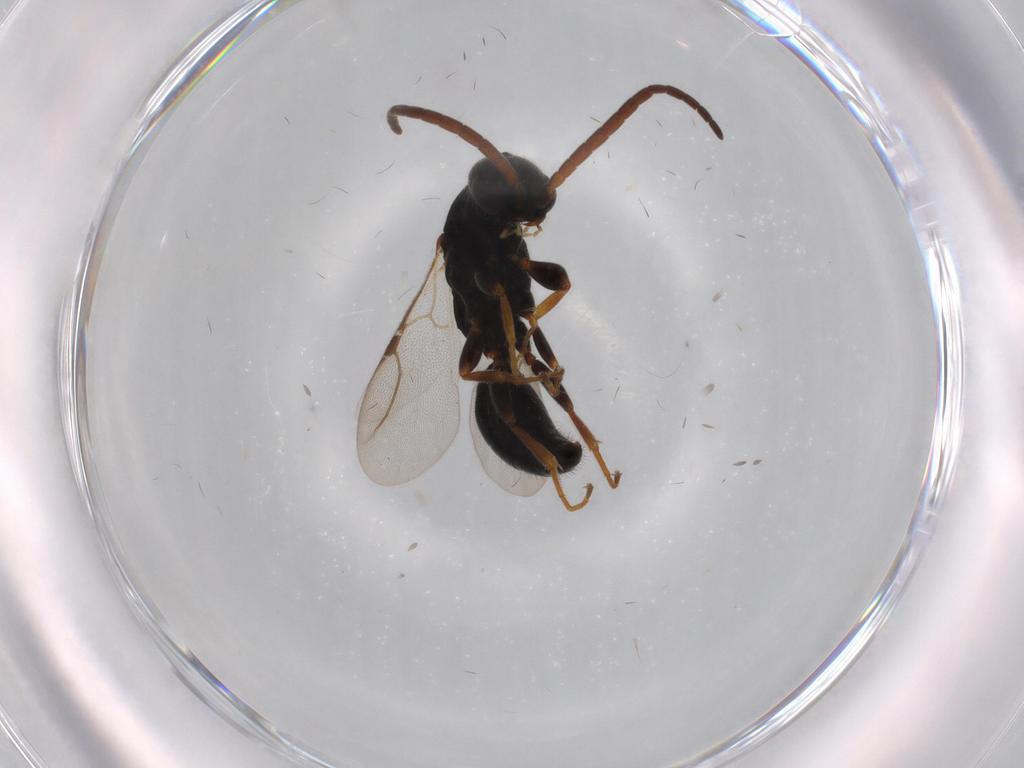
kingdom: Animalia
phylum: Arthropoda
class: Insecta
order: Hymenoptera
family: Bethylidae
